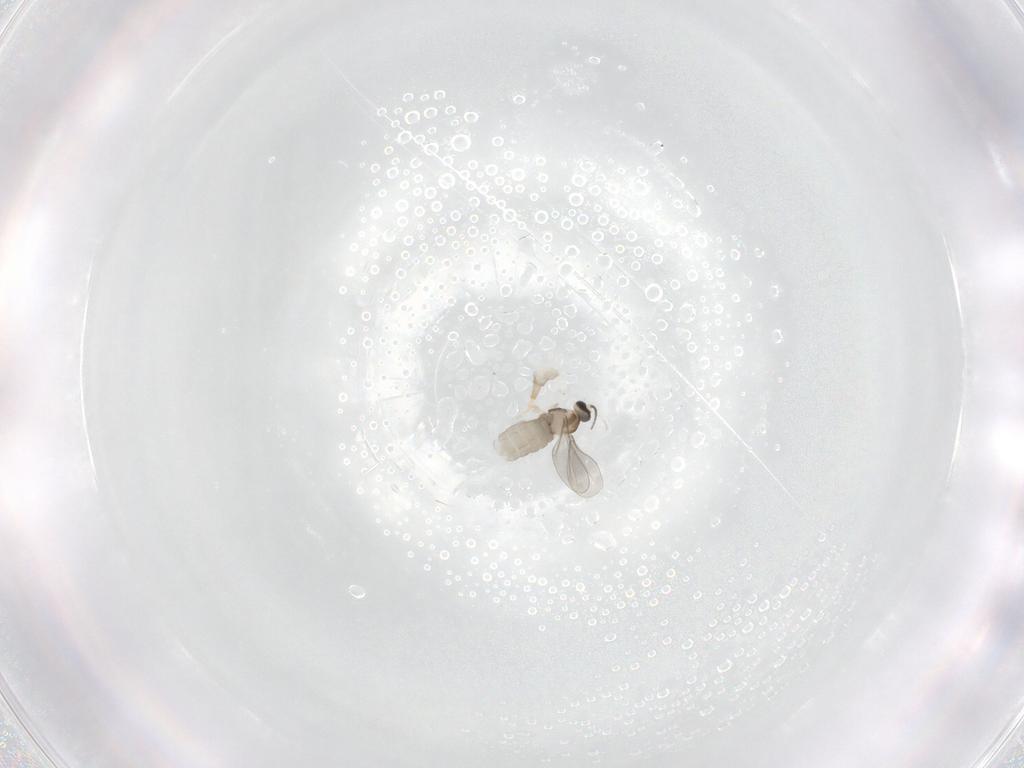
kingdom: Animalia
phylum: Arthropoda
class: Insecta
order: Diptera
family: Cecidomyiidae
